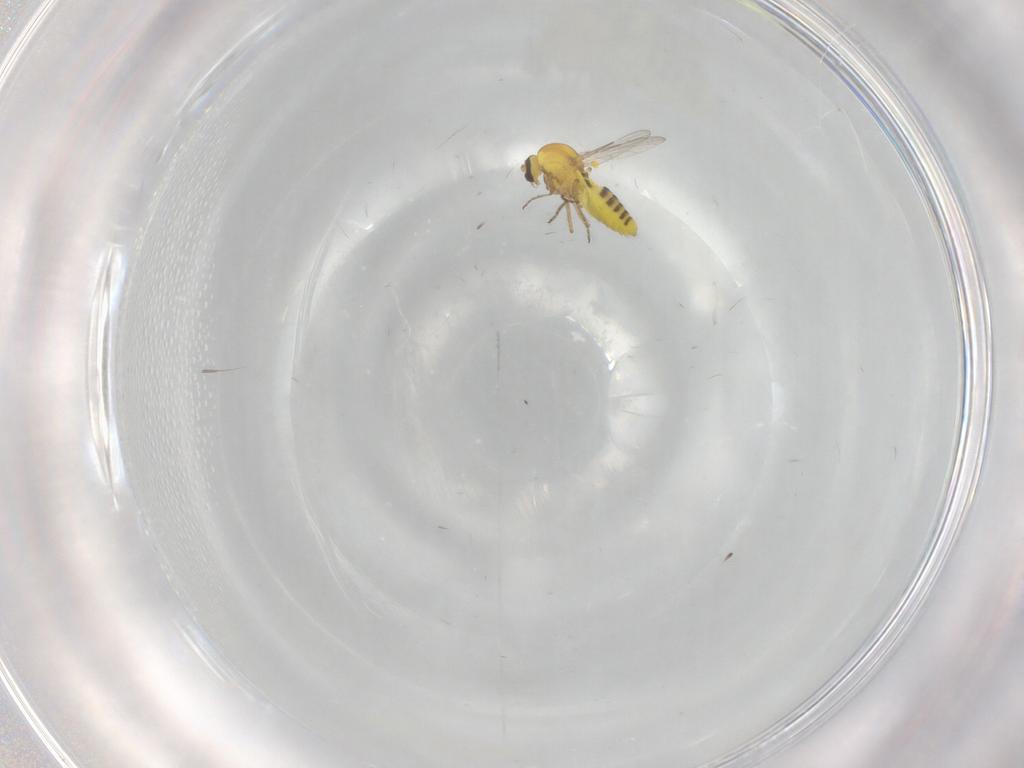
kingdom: Animalia
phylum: Arthropoda
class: Insecta
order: Diptera
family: Ceratopogonidae
